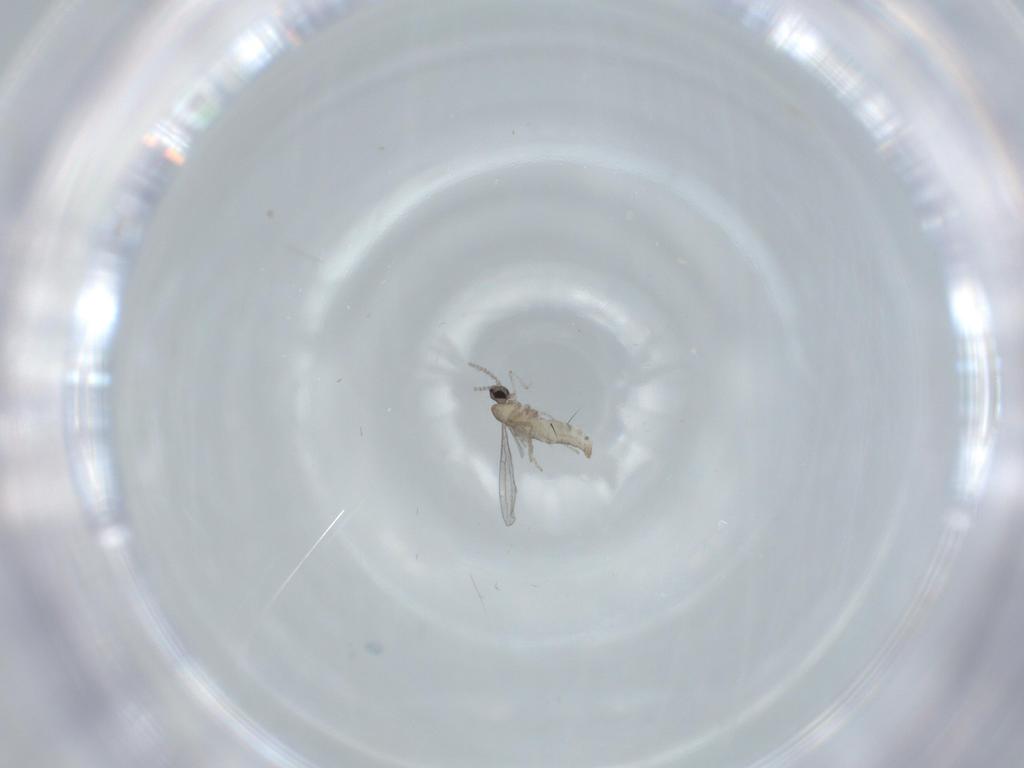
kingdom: Animalia
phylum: Arthropoda
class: Insecta
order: Diptera
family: Cecidomyiidae
